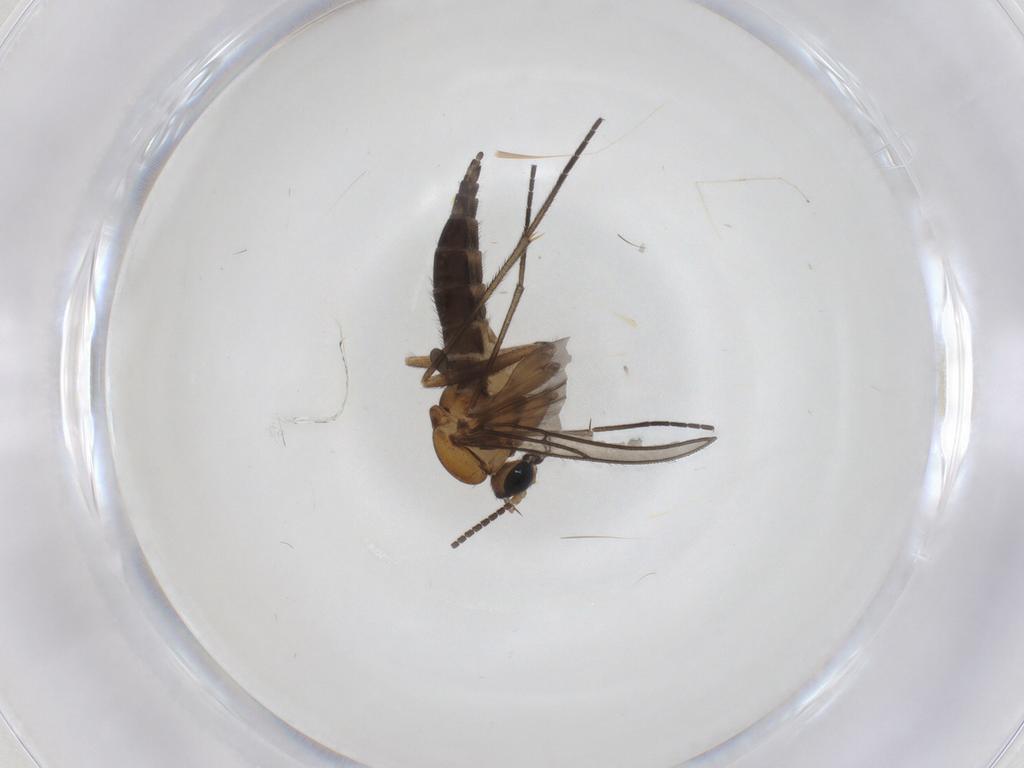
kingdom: Animalia
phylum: Arthropoda
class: Insecta
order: Diptera
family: Sciaridae
